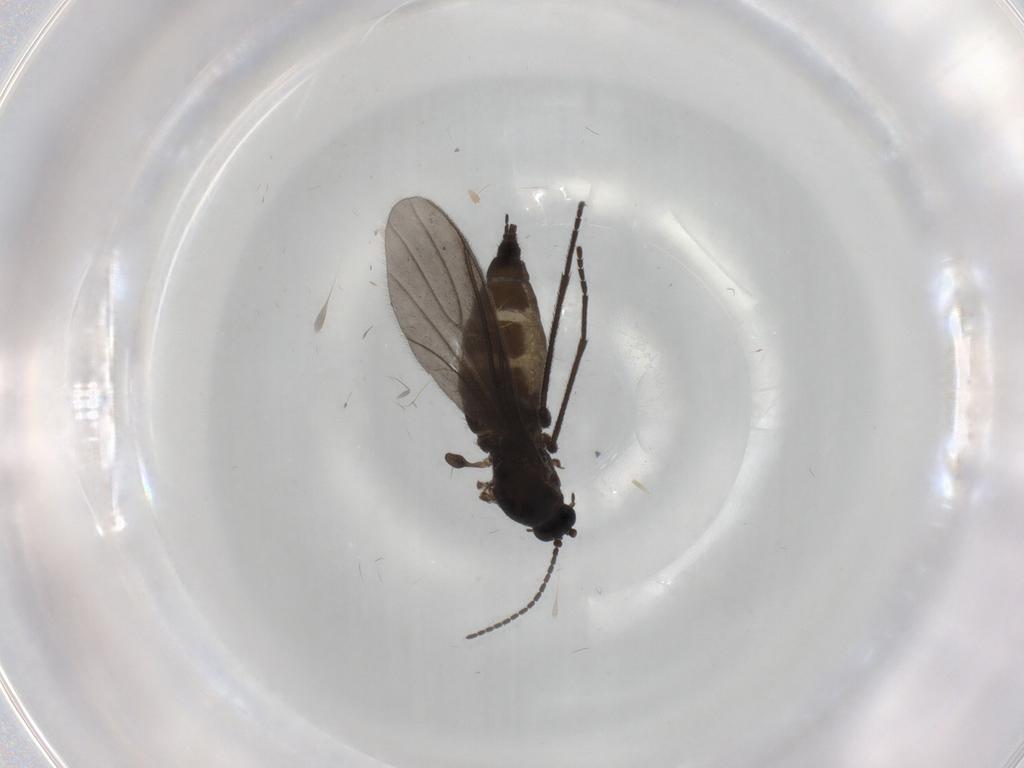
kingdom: Animalia
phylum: Arthropoda
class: Insecta
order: Diptera
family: Sciaridae
